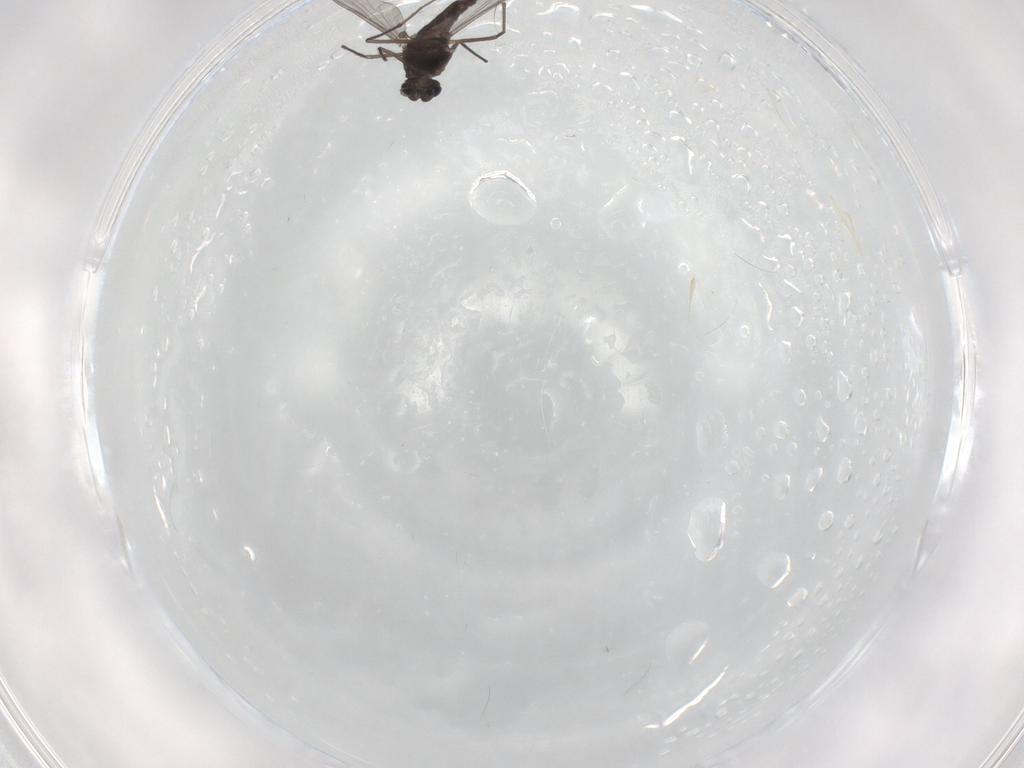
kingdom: Animalia
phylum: Arthropoda
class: Insecta
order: Diptera
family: Chironomidae
